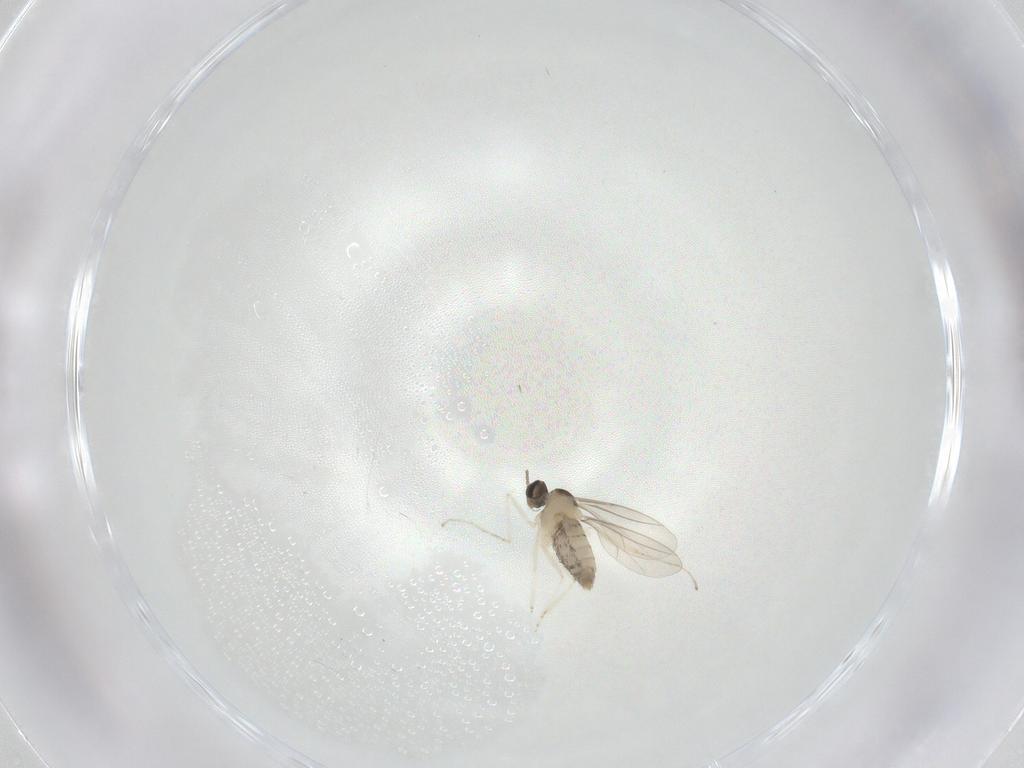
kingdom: Animalia
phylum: Arthropoda
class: Insecta
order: Diptera
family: Cecidomyiidae
